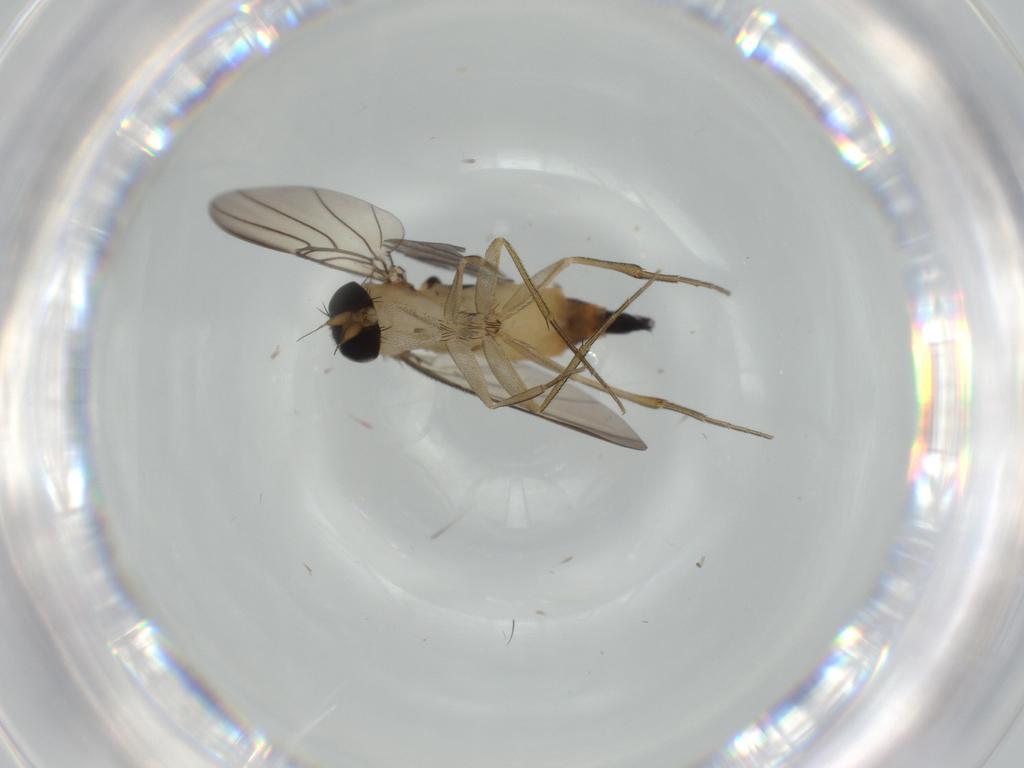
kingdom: Animalia
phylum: Arthropoda
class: Insecta
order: Diptera
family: Phoridae
